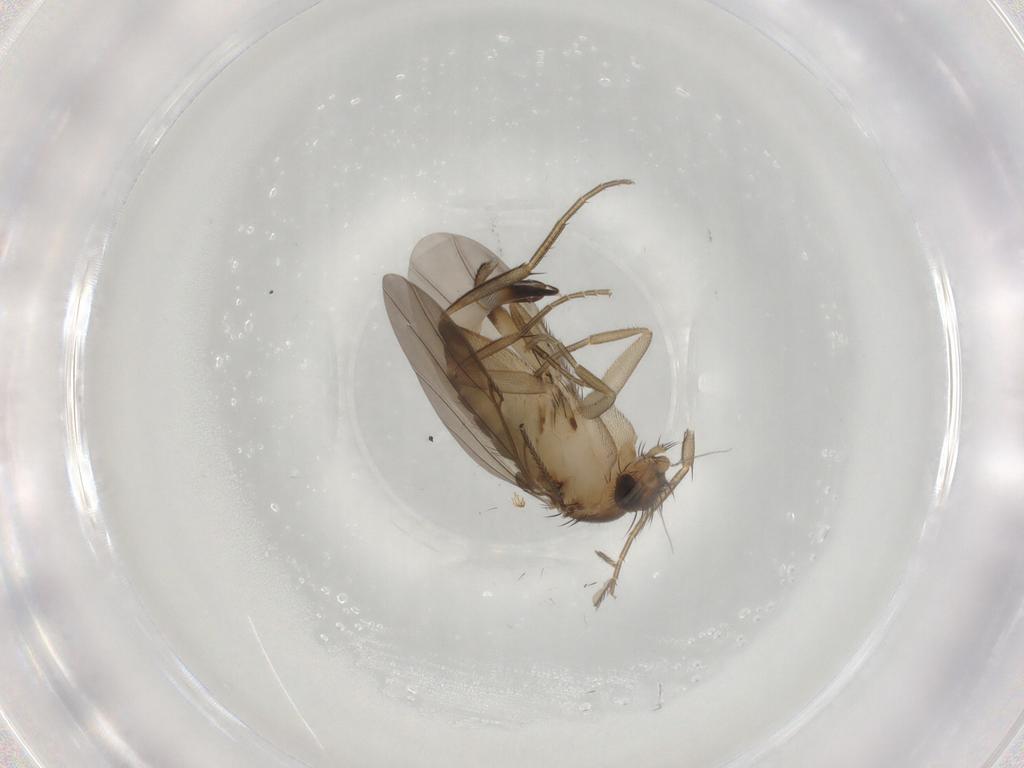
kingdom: Animalia
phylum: Arthropoda
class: Insecta
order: Diptera
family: Phoridae
